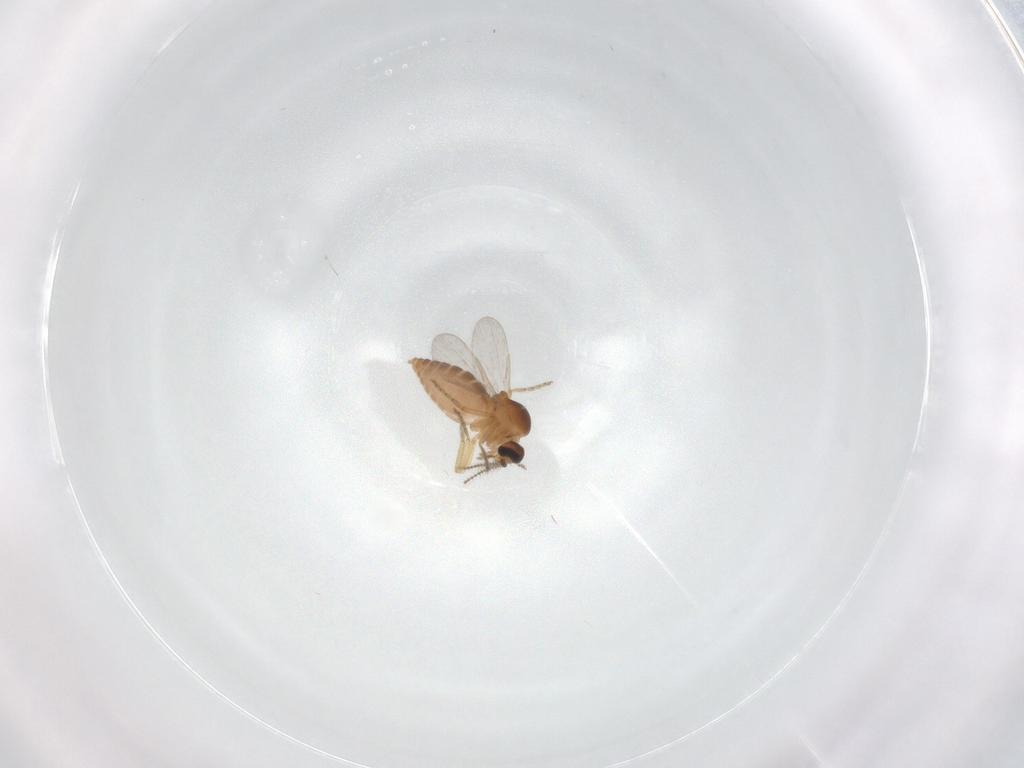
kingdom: Animalia
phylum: Arthropoda
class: Insecta
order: Diptera
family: Ceratopogonidae
